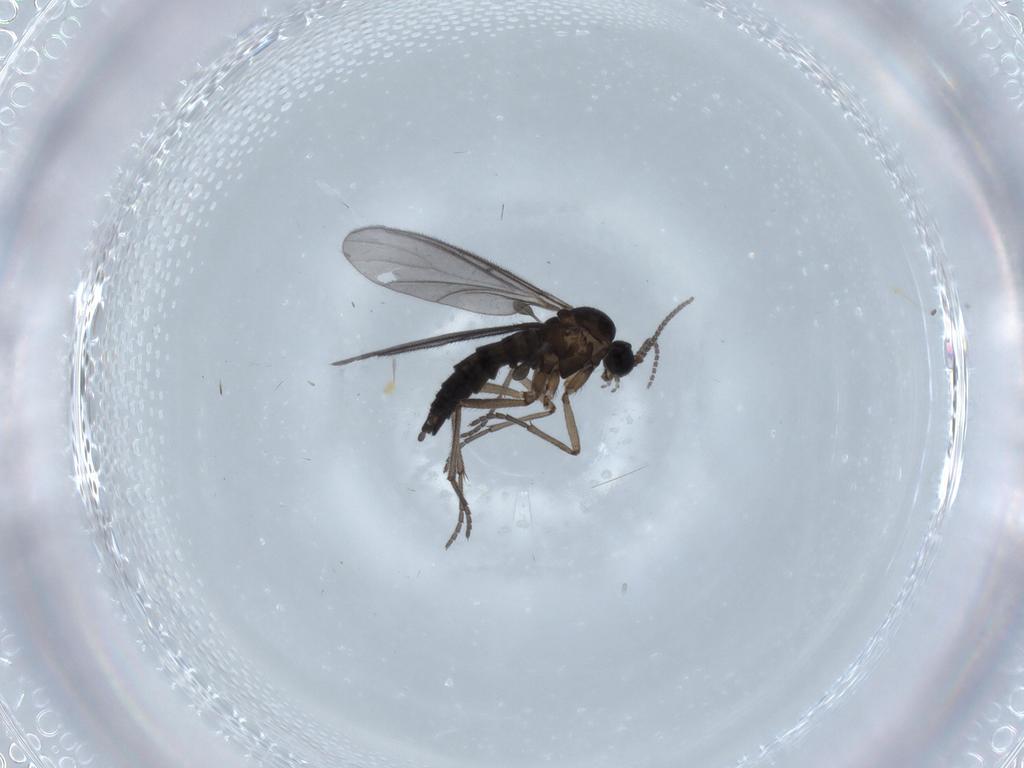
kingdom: Animalia
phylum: Arthropoda
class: Insecta
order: Diptera
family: Sciaridae
